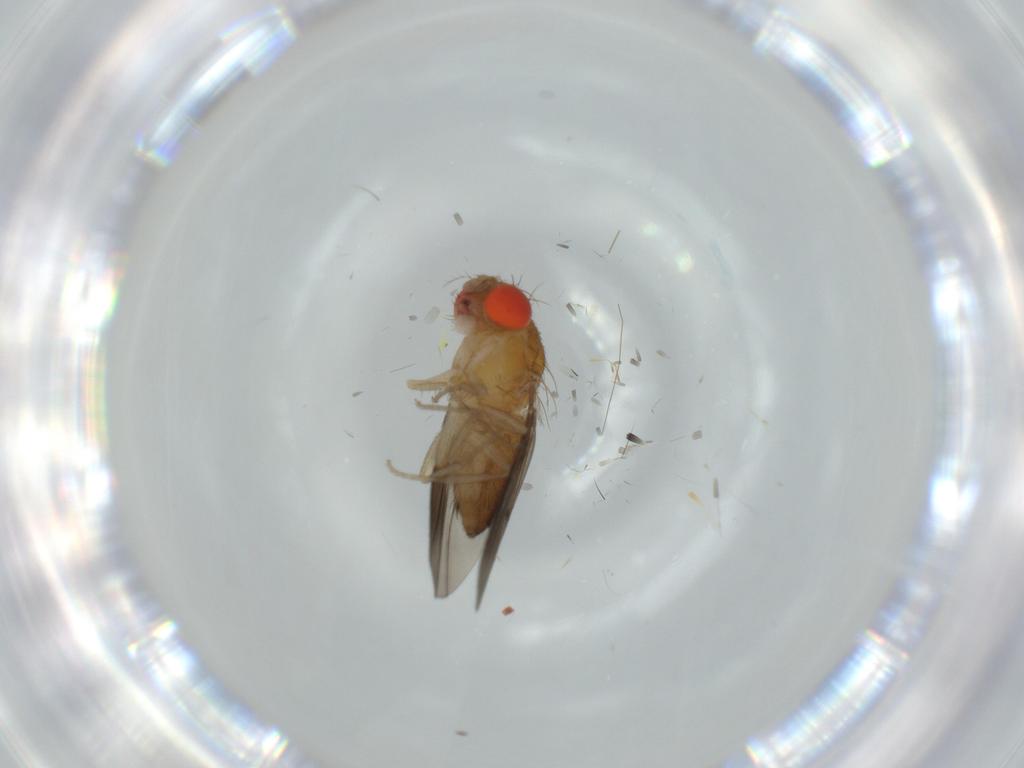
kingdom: Animalia
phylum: Arthropoda
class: Insecta
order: Diptera
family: Milichiidae
